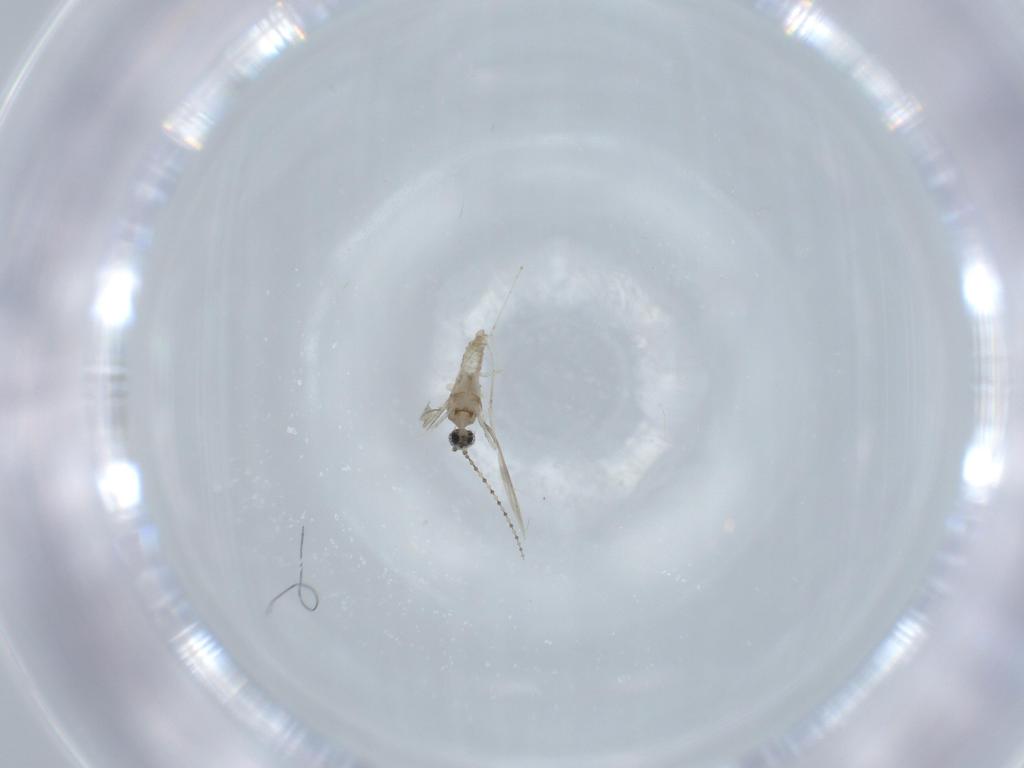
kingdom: Animalia
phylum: Arthropoda
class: Insecta
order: Diptera
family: Cecidomyiidae
